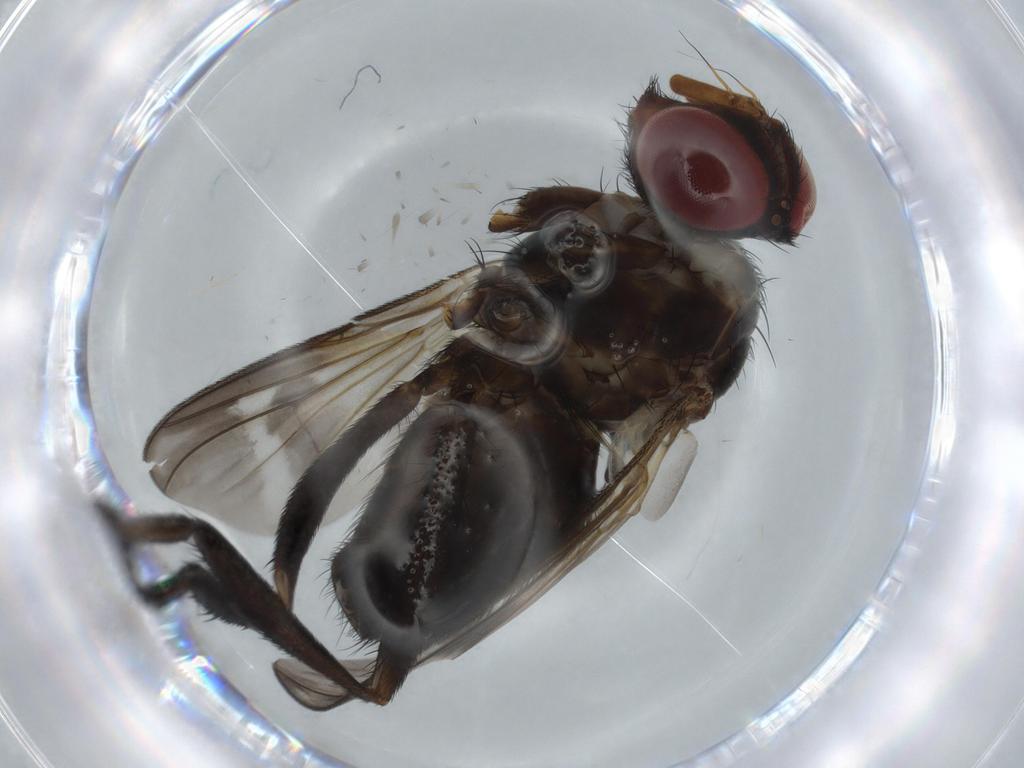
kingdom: Animalia
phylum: Arthropoda
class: Insecta
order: Diptera
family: Calliphoridae
